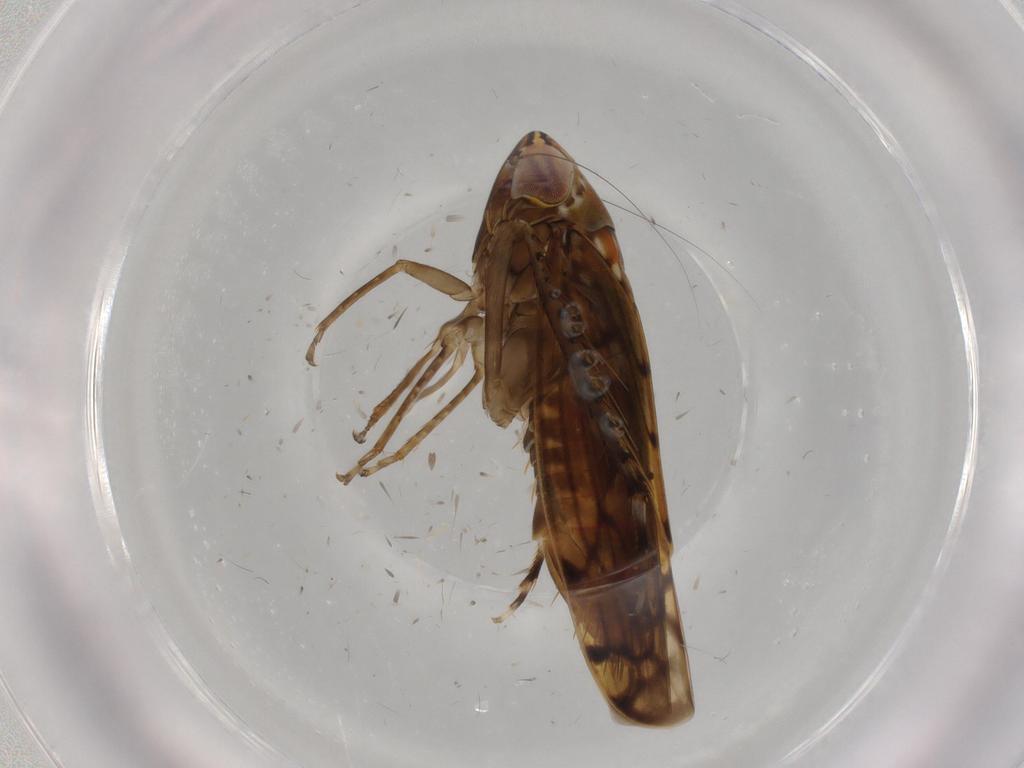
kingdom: Animalia
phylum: Arthropoda
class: Insecta
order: Hemiptera
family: Cicadellidae
